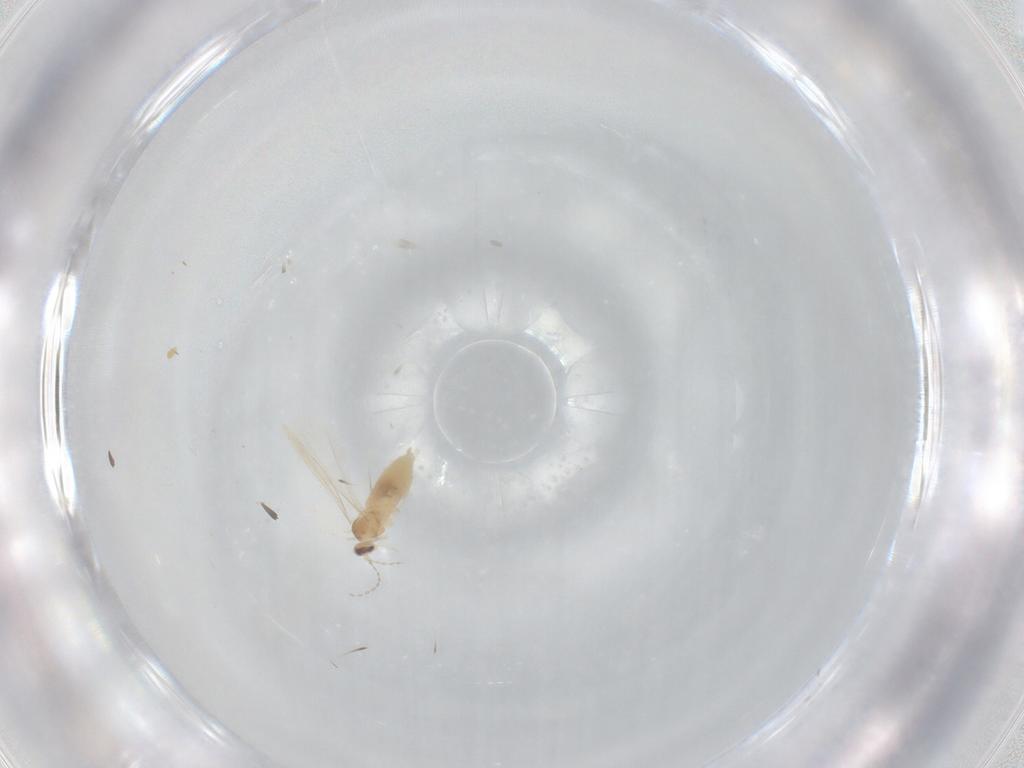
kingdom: Animalia
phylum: Arthropoda
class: Insecta
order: Diptera
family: Cecidomyiidae
